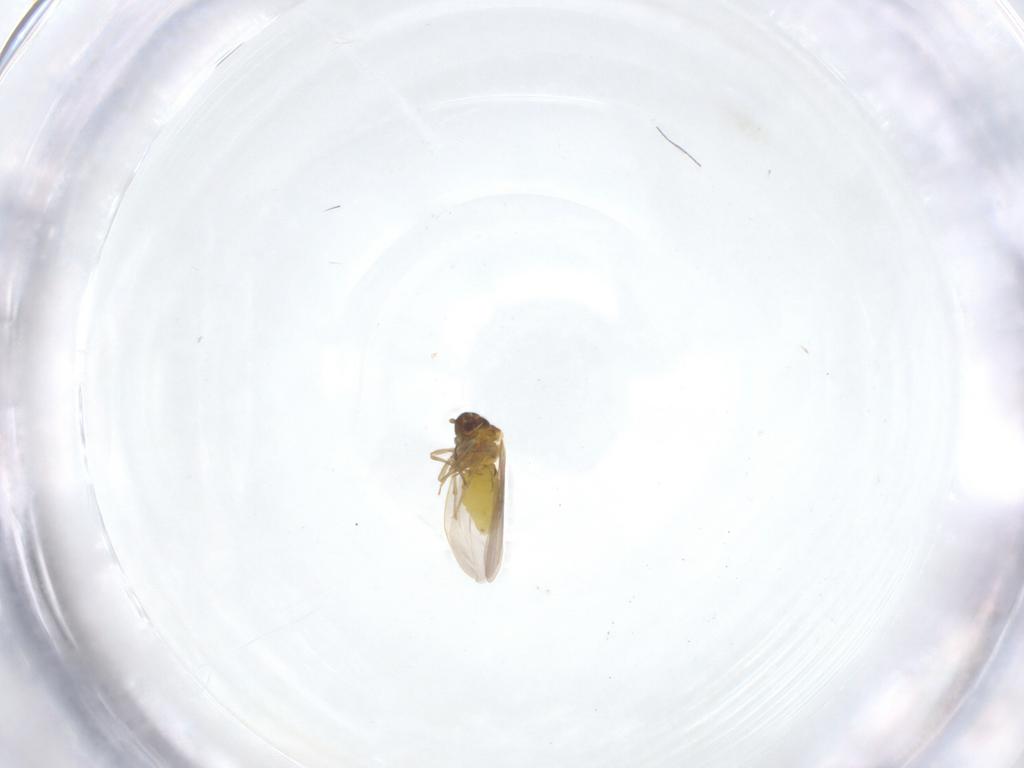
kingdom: Animalia
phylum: Arthropoda
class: Insecta
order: Hemiptera
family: Aleyrodidae
